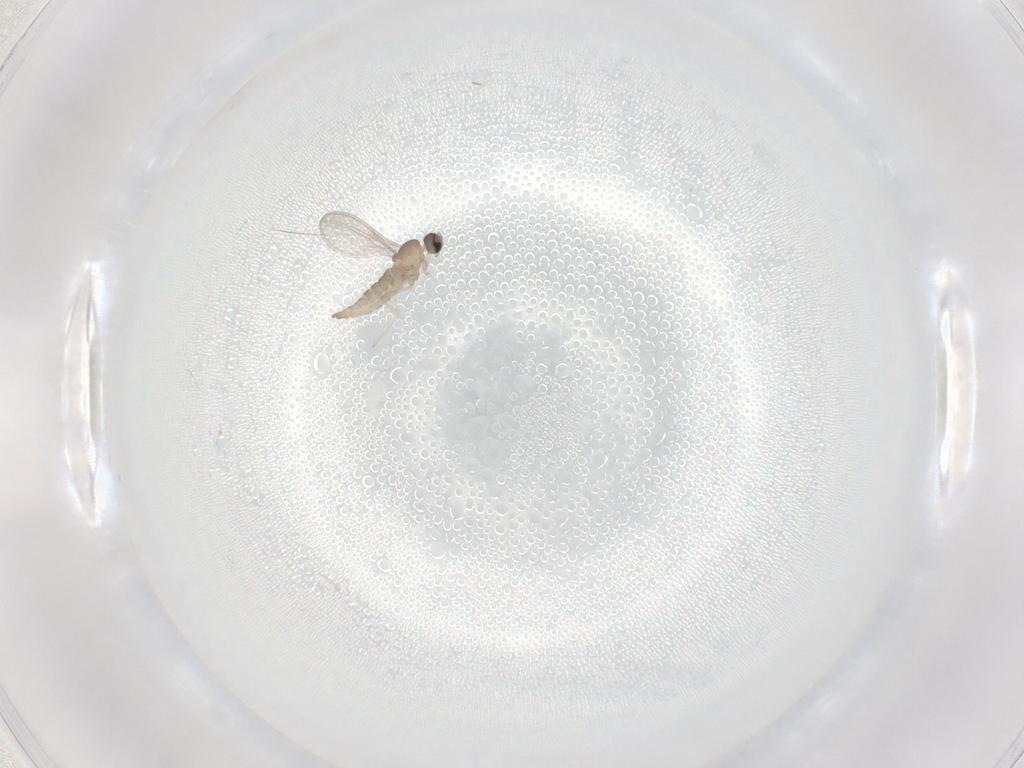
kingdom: Animalia
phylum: Arthropoda
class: Insecta
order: Diptera
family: Cecidomyiidae
